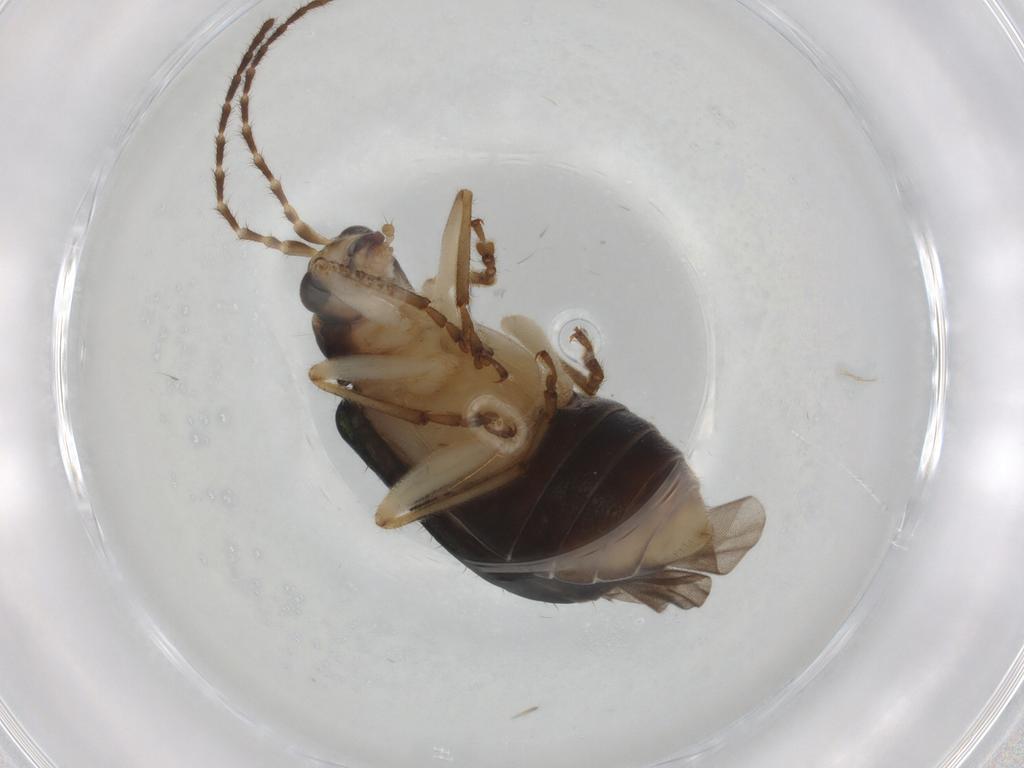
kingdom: Animalia
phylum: Arthropoda
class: Insecta
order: Coleoptera
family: Chrysomelidae
